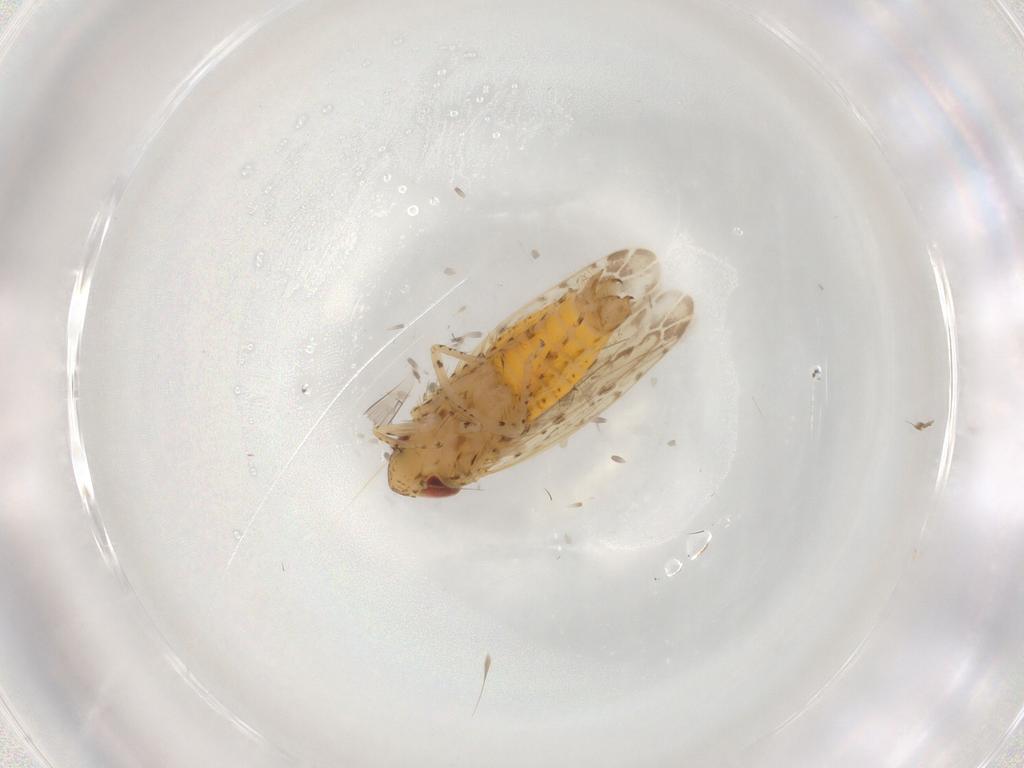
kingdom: Animalia
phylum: Arthropoda
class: Insecta
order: Hemiptera
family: Cicadellidae
